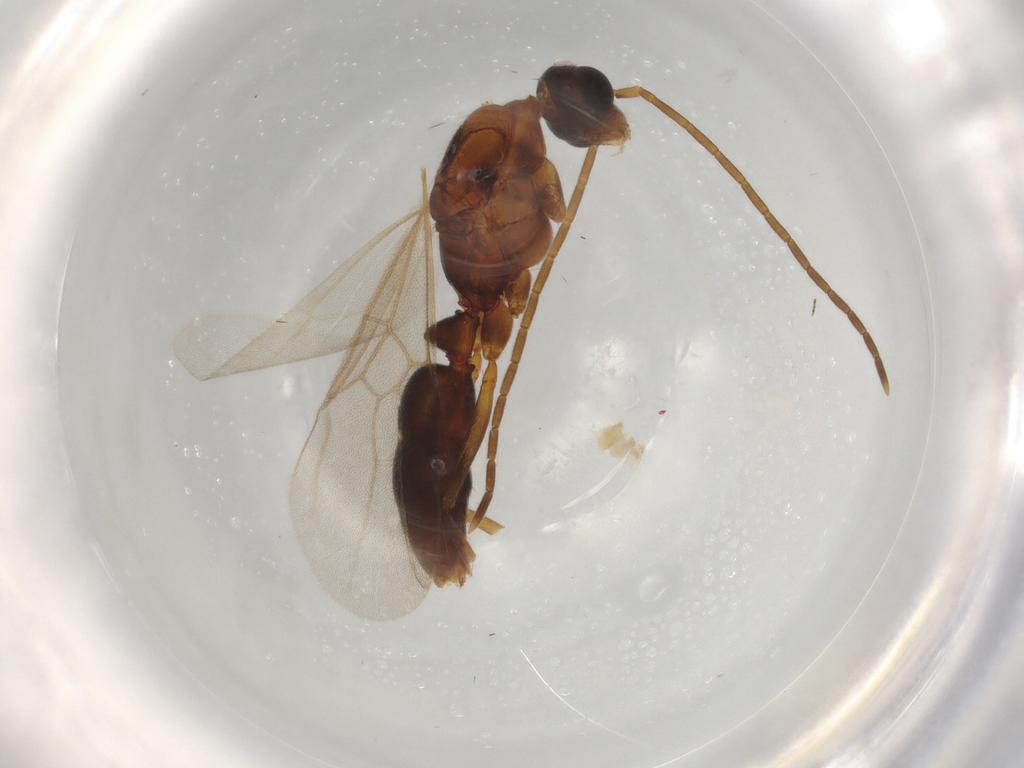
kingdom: Animalia
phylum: Arthropoda
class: Insecta
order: Hymenoptera
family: Formicidae
